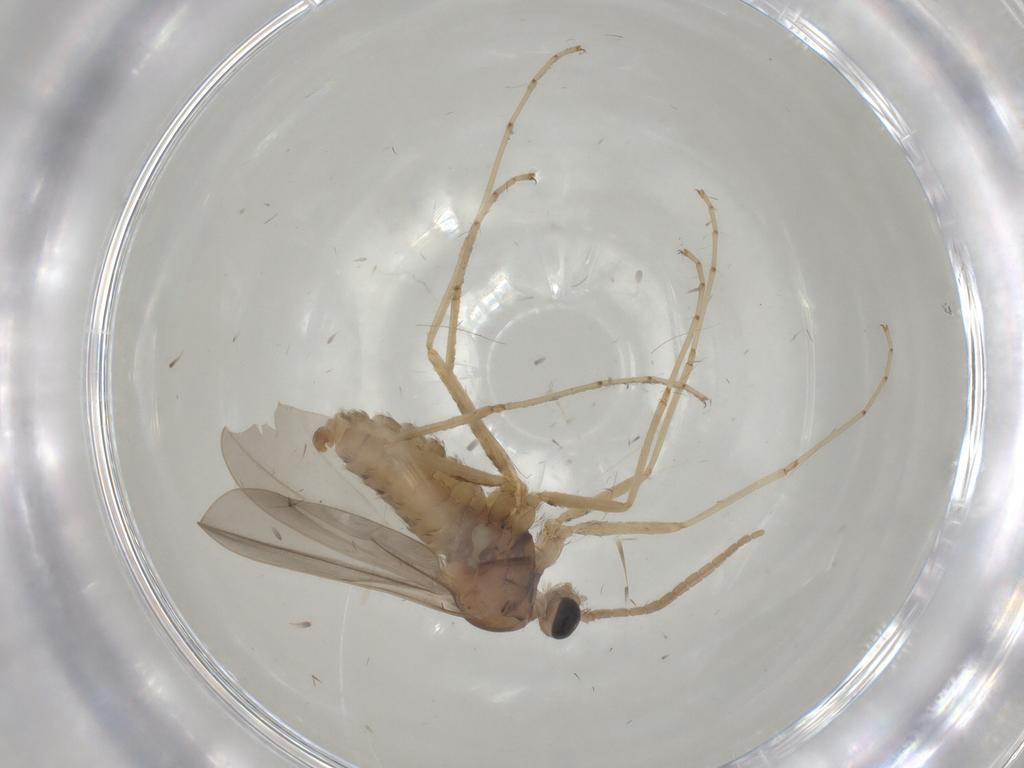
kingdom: Animalia
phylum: Arthropoda
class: Insecta
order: Diptera
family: Cecidomyiidae
